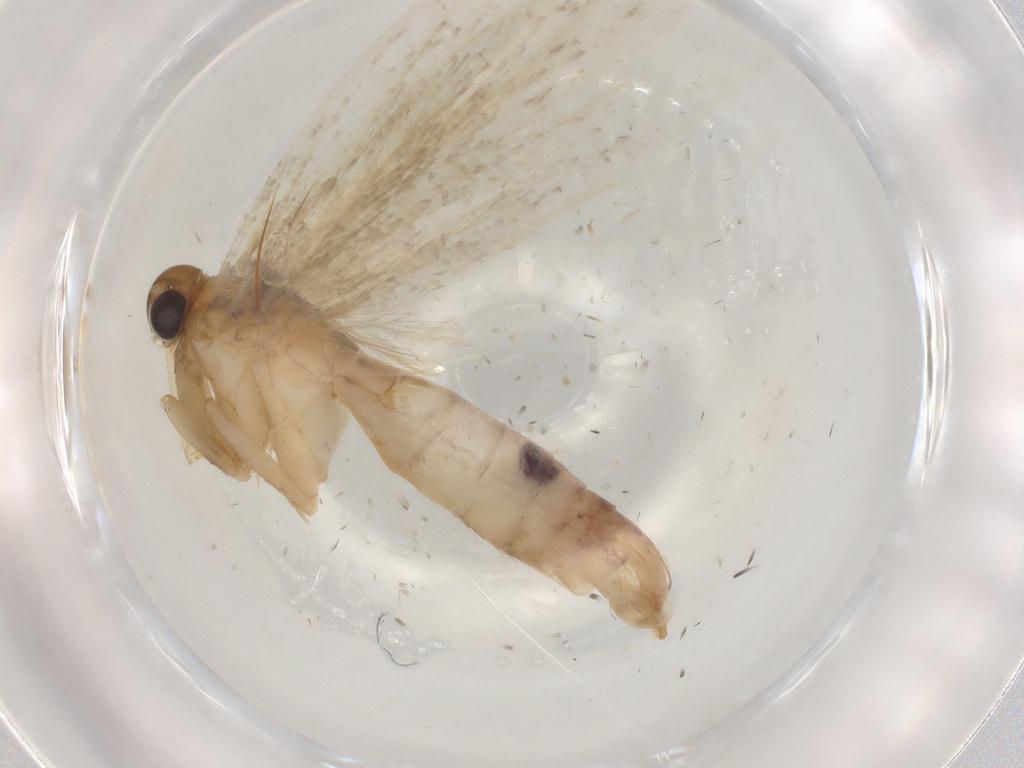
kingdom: Animalia
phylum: Arthropoda
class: Insecta
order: Lepidoptera
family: Gelechiidae
